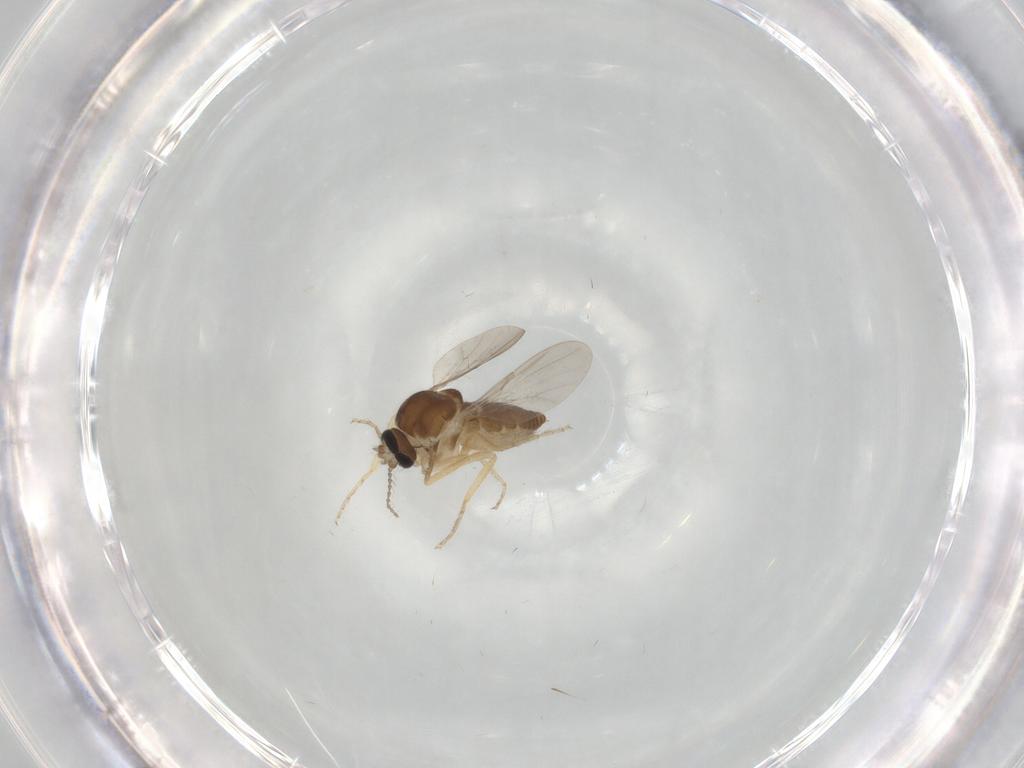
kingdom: Animalia
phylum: Arthropoda
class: Insecta
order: Diptera
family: Ceratopogonidae
